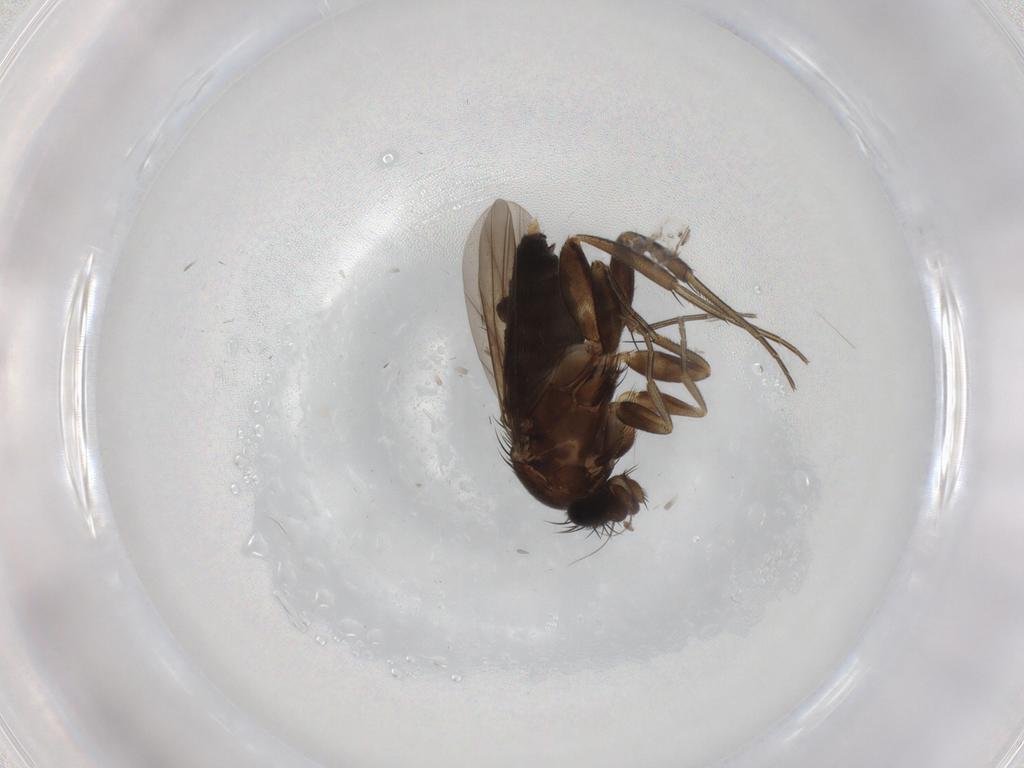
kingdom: Animalia
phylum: Arthropoda
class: Insecta
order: Diptera
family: Phoridae
